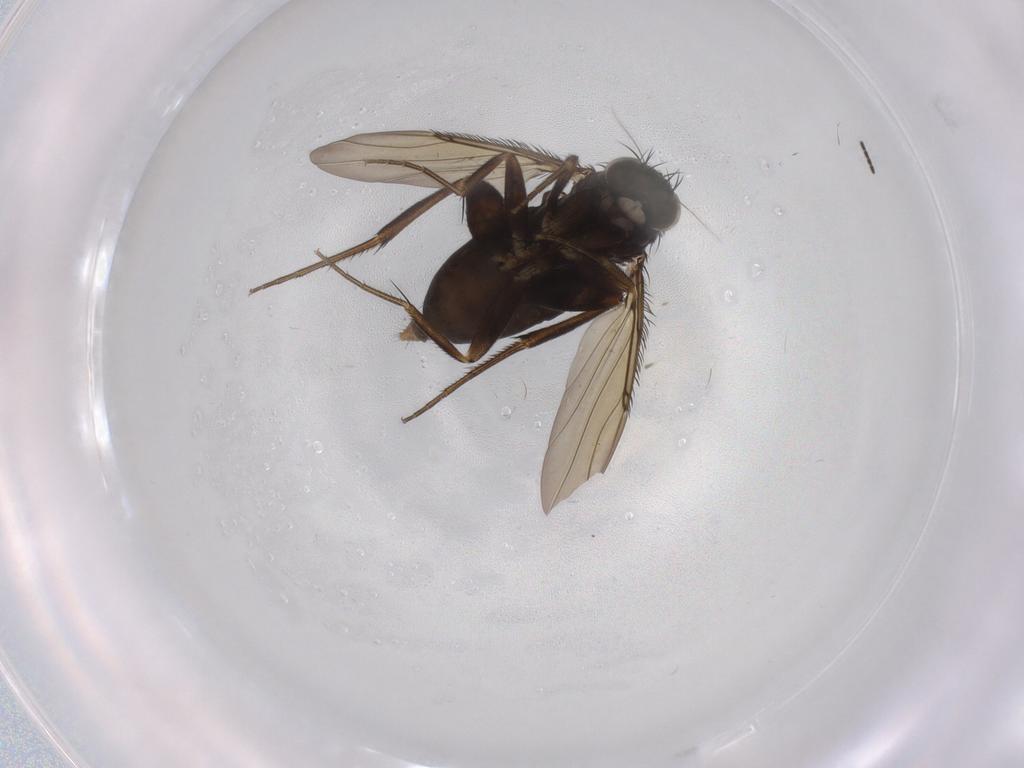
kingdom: Animalia
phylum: Arthropoda
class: Insecta
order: Diptera
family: Phoridae
